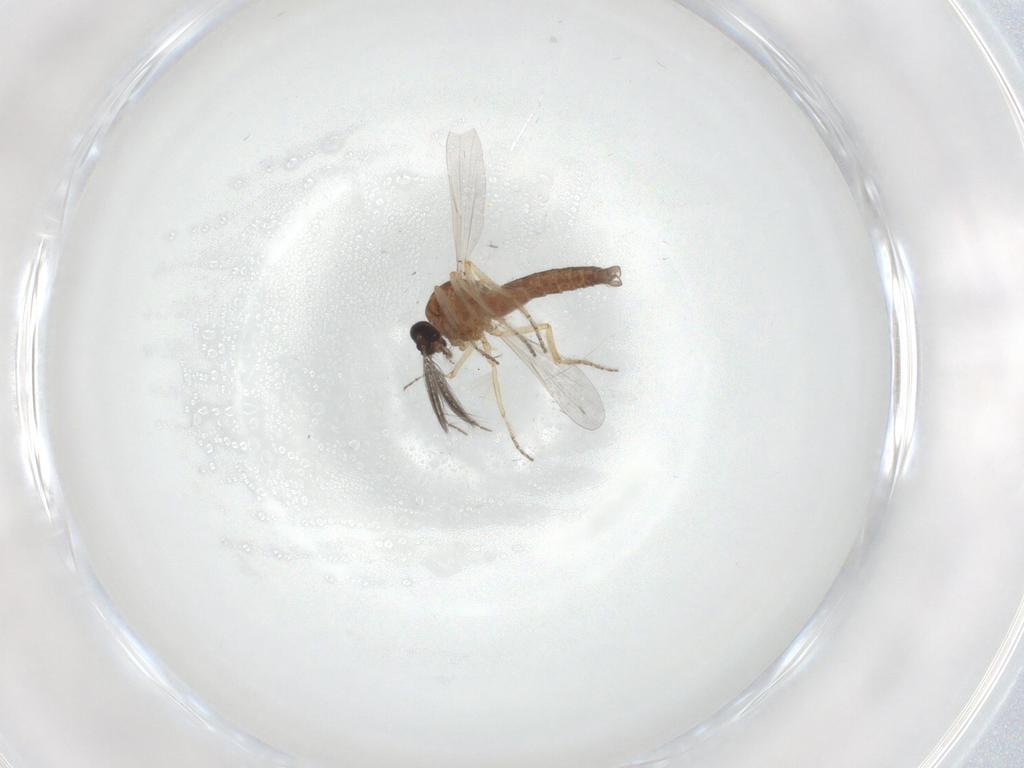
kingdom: Animalia
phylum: Arthropoda
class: Insecta
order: Diptera
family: Ceratopogonidae
